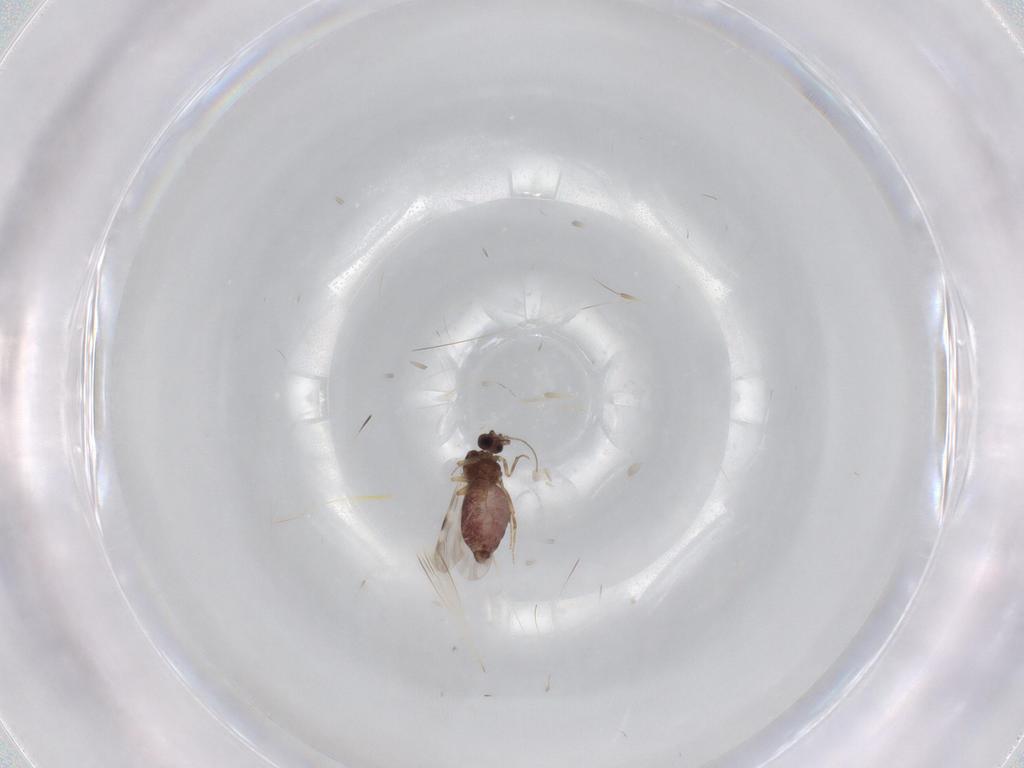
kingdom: Animalia
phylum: Arthropoda
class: Insecta
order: Diptera
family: Ceratopogonidae
